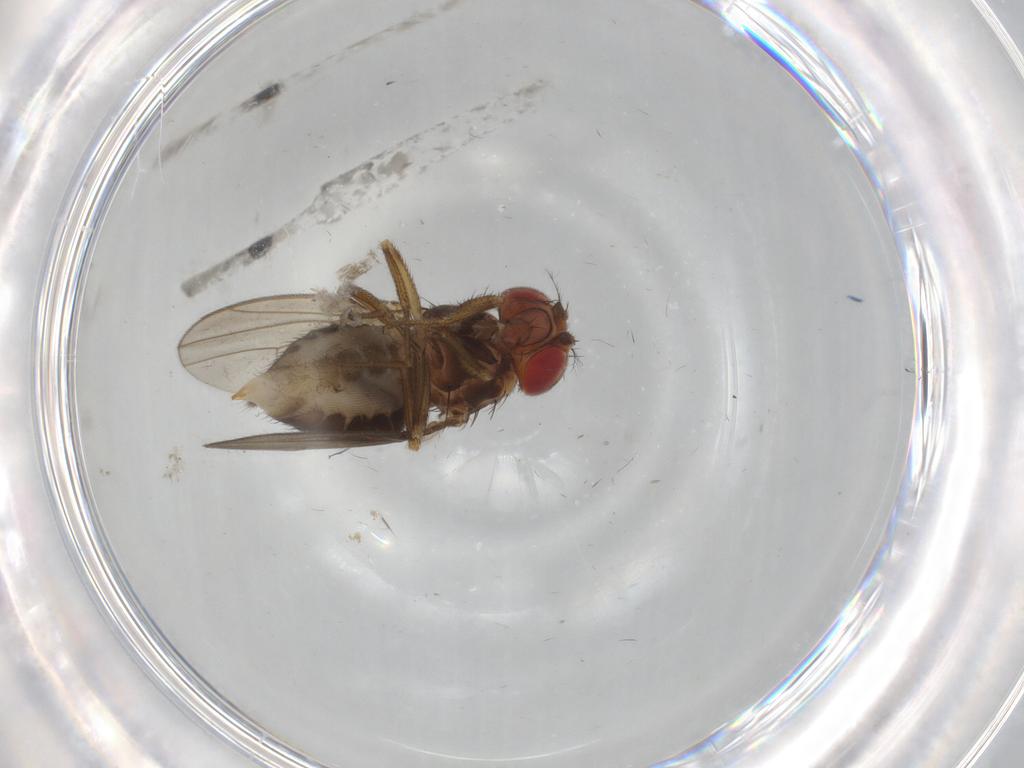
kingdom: Animalia
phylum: Arthropoda
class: Insecta
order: Diptera
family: Drosophilidae
